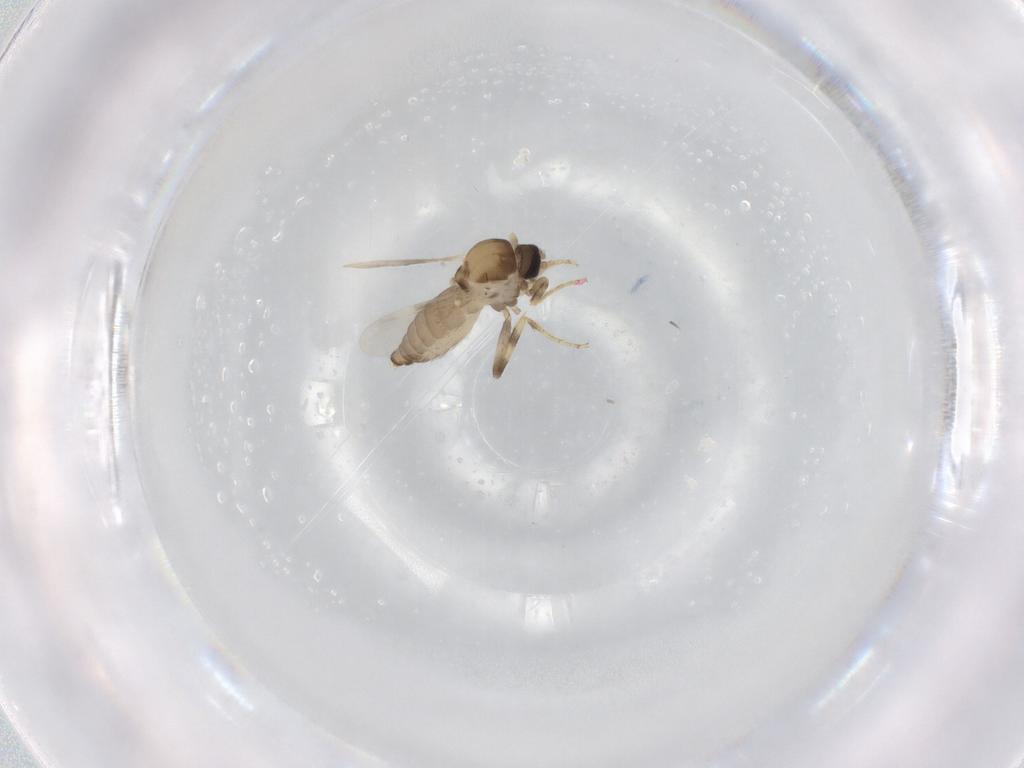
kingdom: Animalia
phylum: Arthropoda
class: Insecta
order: Diptera
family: Ceratopogonidae
